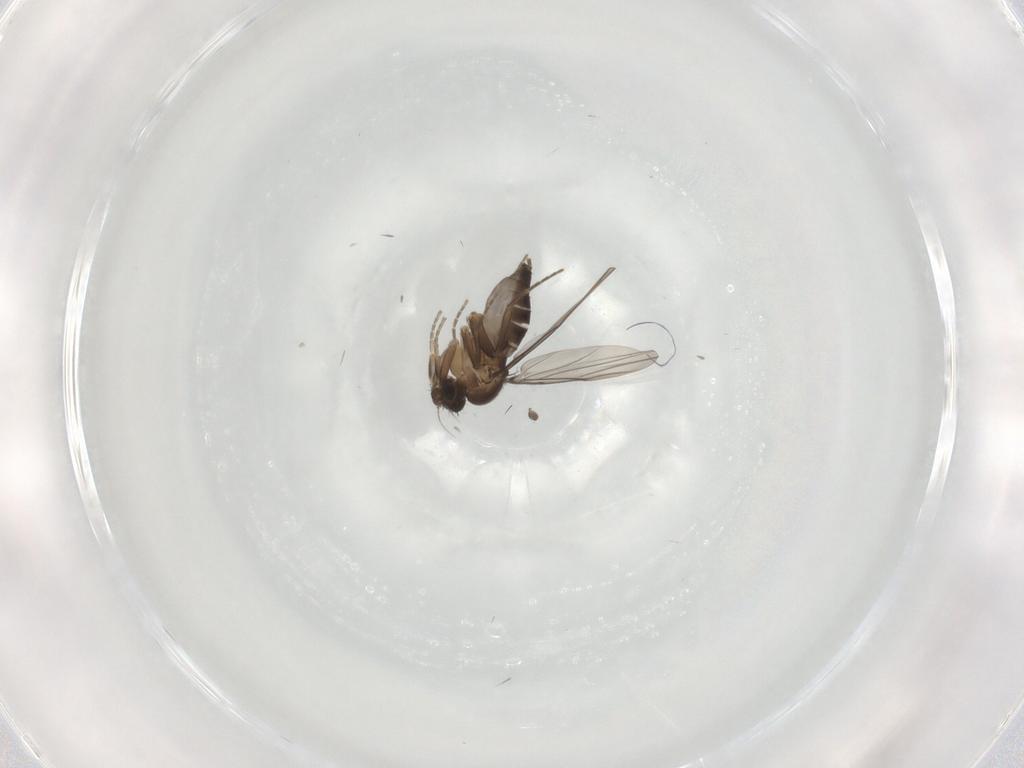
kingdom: Animalia
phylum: Arthropoda
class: Insecta
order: Diptera
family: Phoridae
